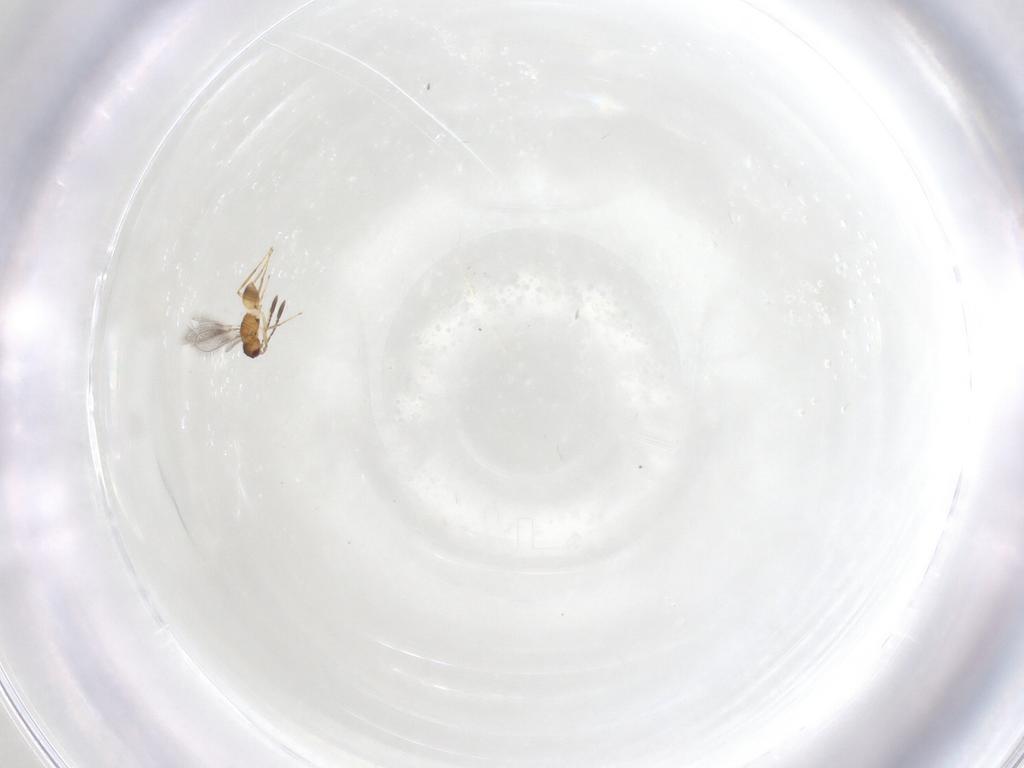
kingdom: Animalia
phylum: Arthropoda
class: Insecta
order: Hymenoptera
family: Mymaridae
